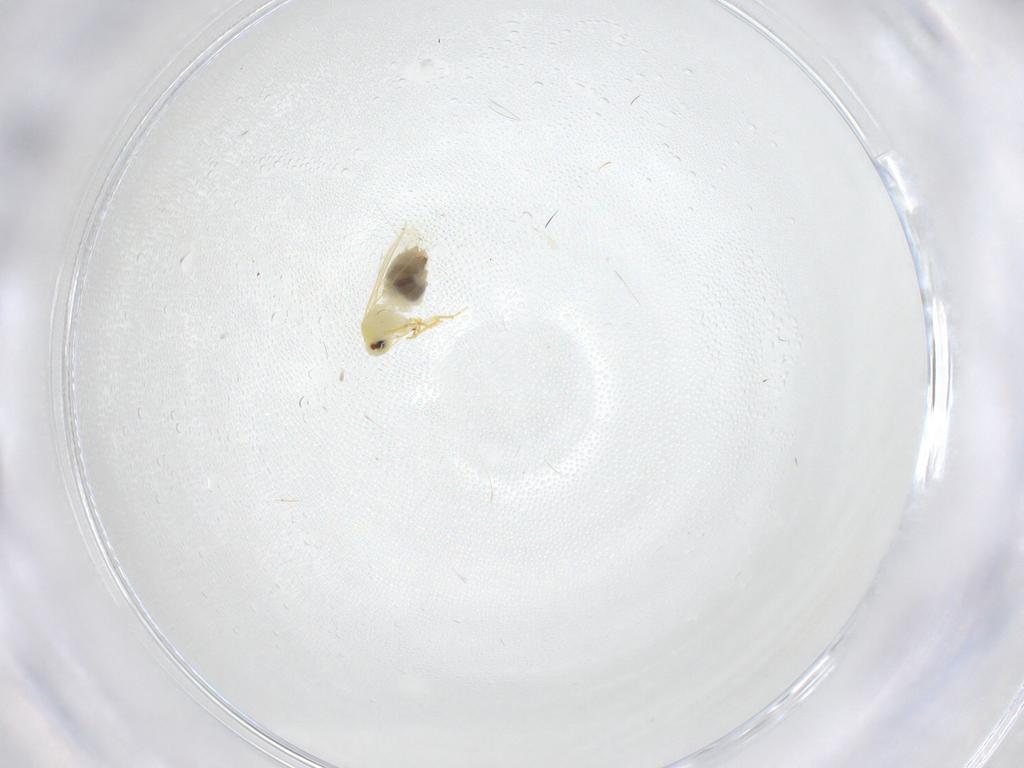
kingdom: Animalia
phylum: Arthropoda
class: Insecta
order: Hemiptera
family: Aleyrodidae
